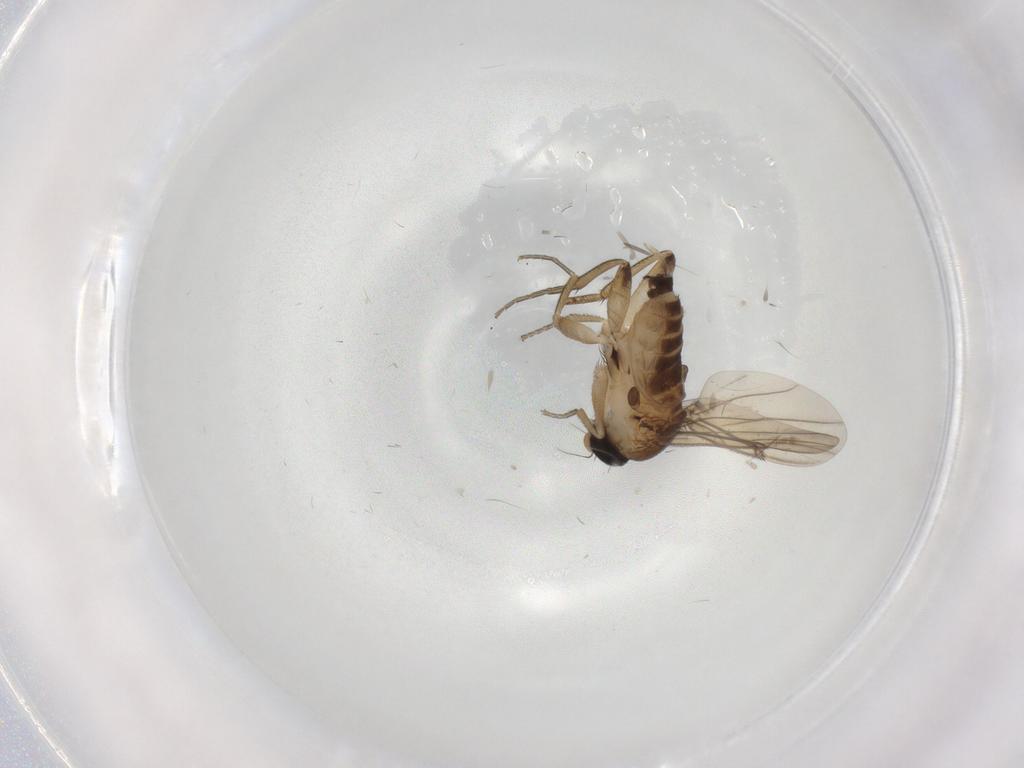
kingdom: Animalia
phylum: Arthropoda
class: Insecta
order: Diptera
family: Phoridae
